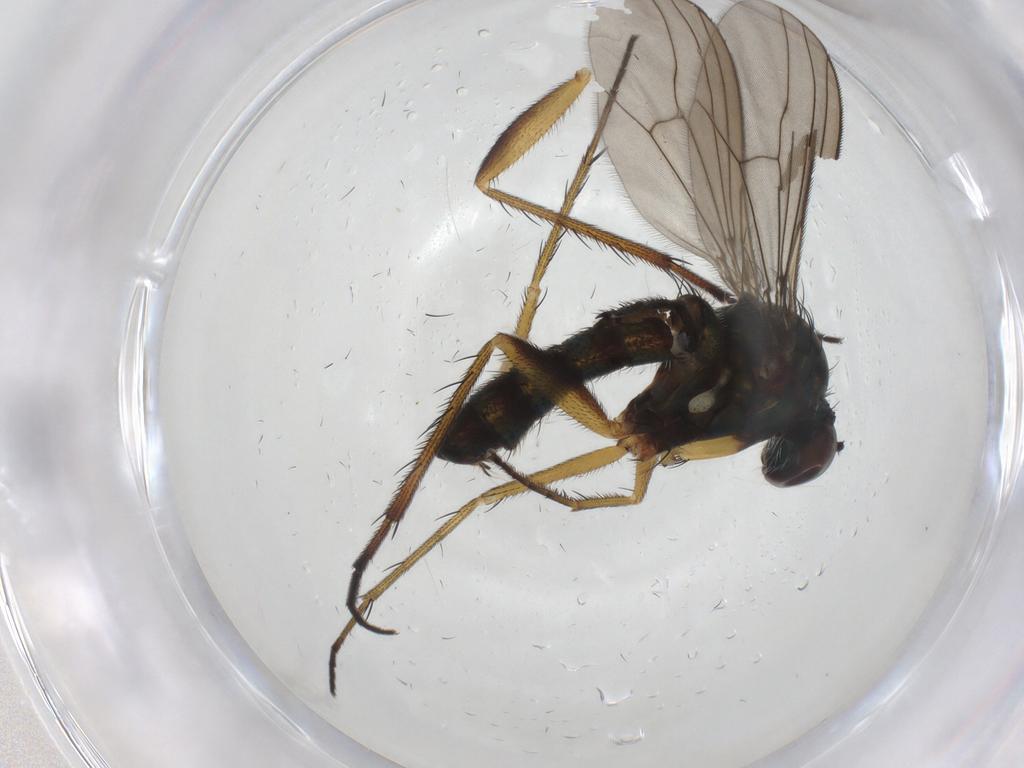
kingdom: Animalia
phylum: Arthropoda
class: Insecta
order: Diptera
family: Dolichopodidae
